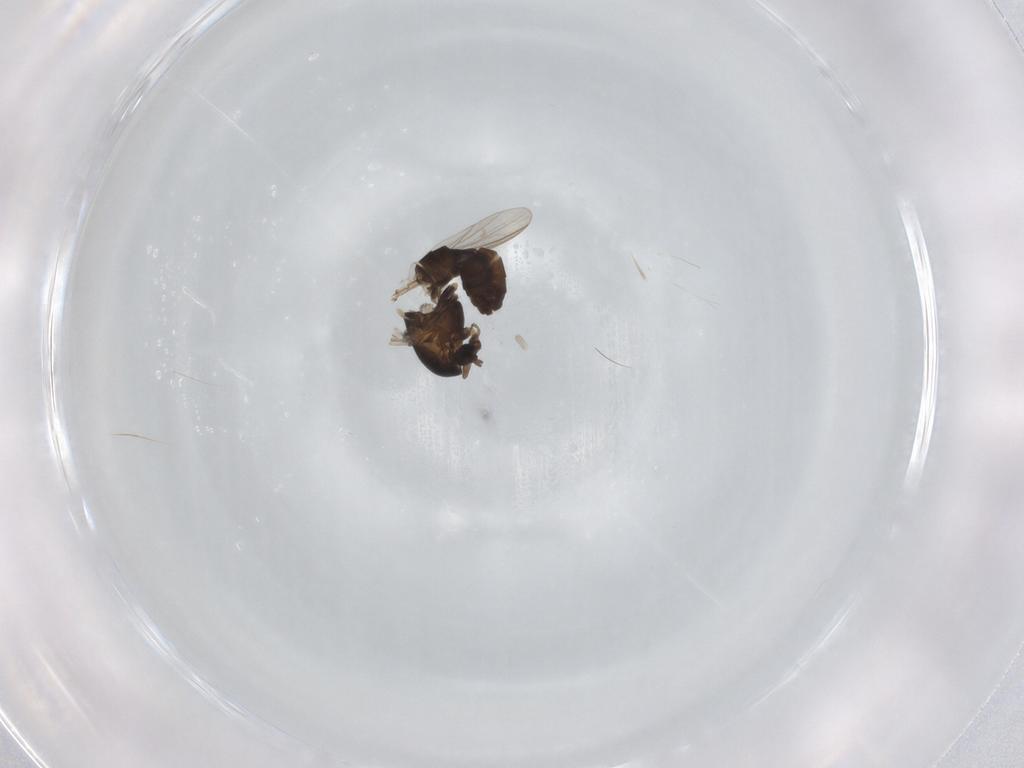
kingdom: Animalia
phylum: Arthropoda
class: Insecta
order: Diptera
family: Chironomidae
